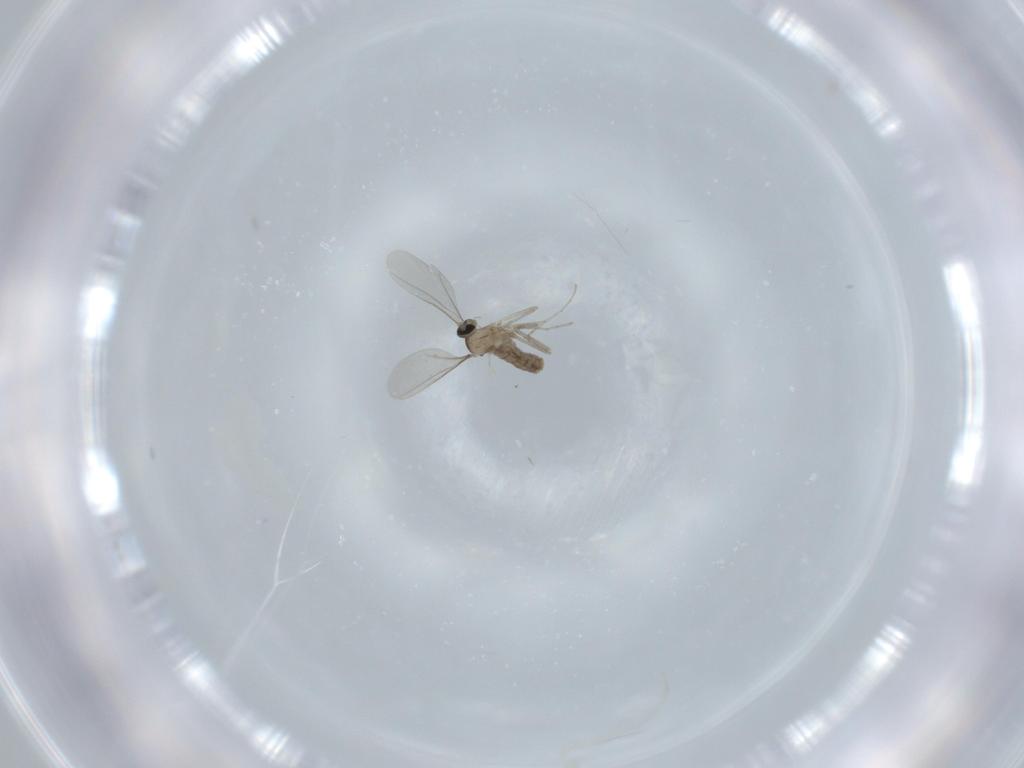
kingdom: Animalia
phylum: Arthropoda
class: Insecta
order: Diptera
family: Cecidomyiidae
